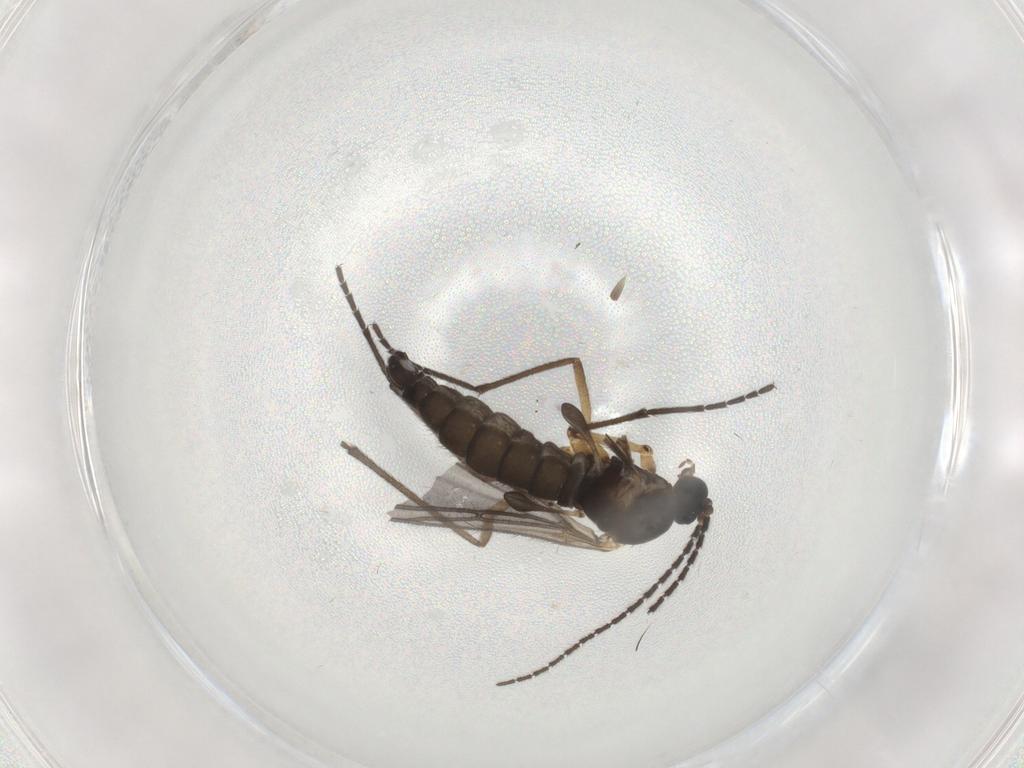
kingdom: Animalia
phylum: Arthropoda
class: Insecta
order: Diptera
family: Sciaridae
